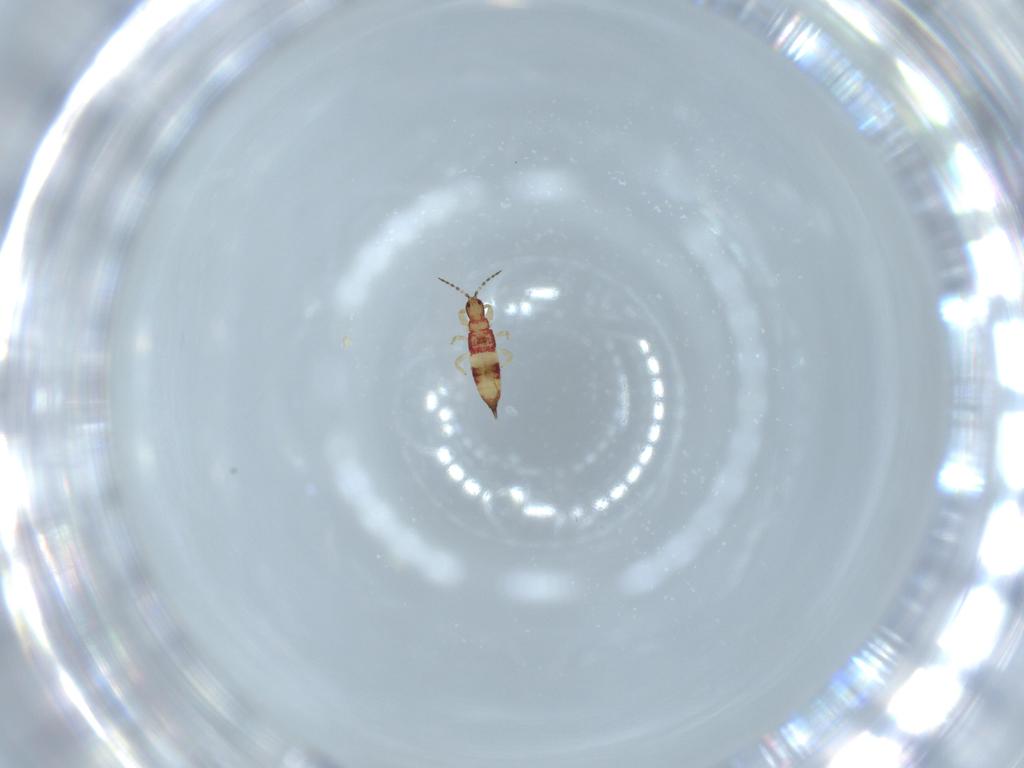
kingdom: Animalia
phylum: Arthropoda
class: Insecta
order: Thysanoptera
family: Phlaeothripidae
